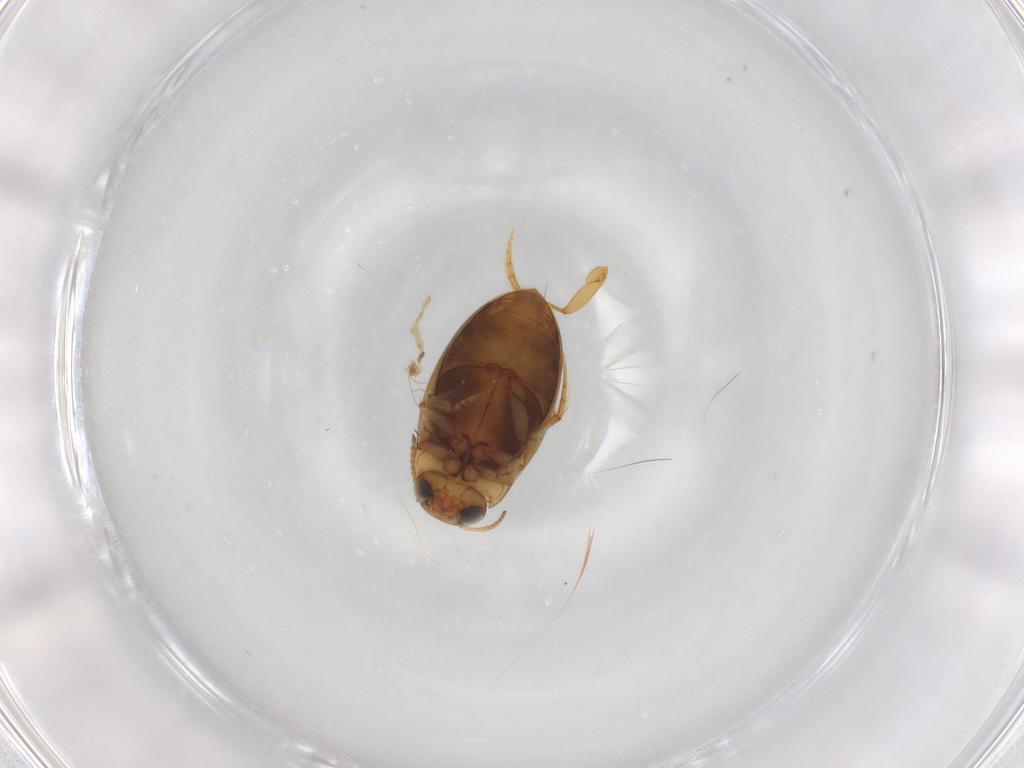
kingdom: Animalia
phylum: Arthropoda
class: Insecta
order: Coleoptera
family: Dytiscidae
